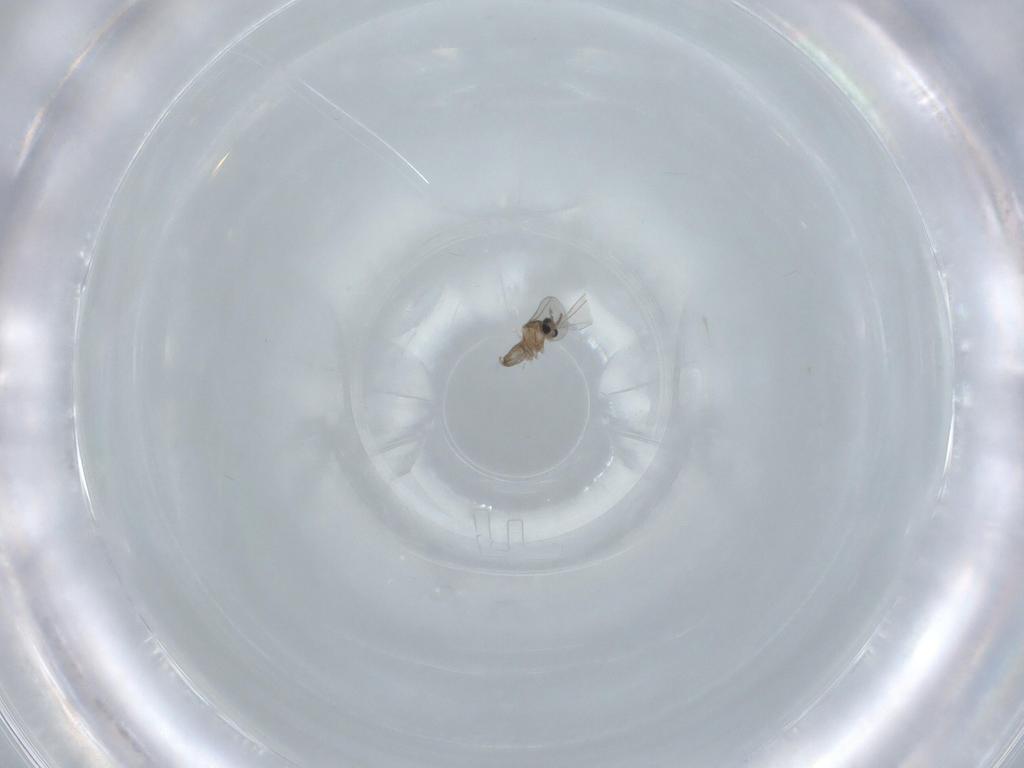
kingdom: Animalia
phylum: Arthropoda
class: Insecta
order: Diptera
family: Cecidomyiidae
